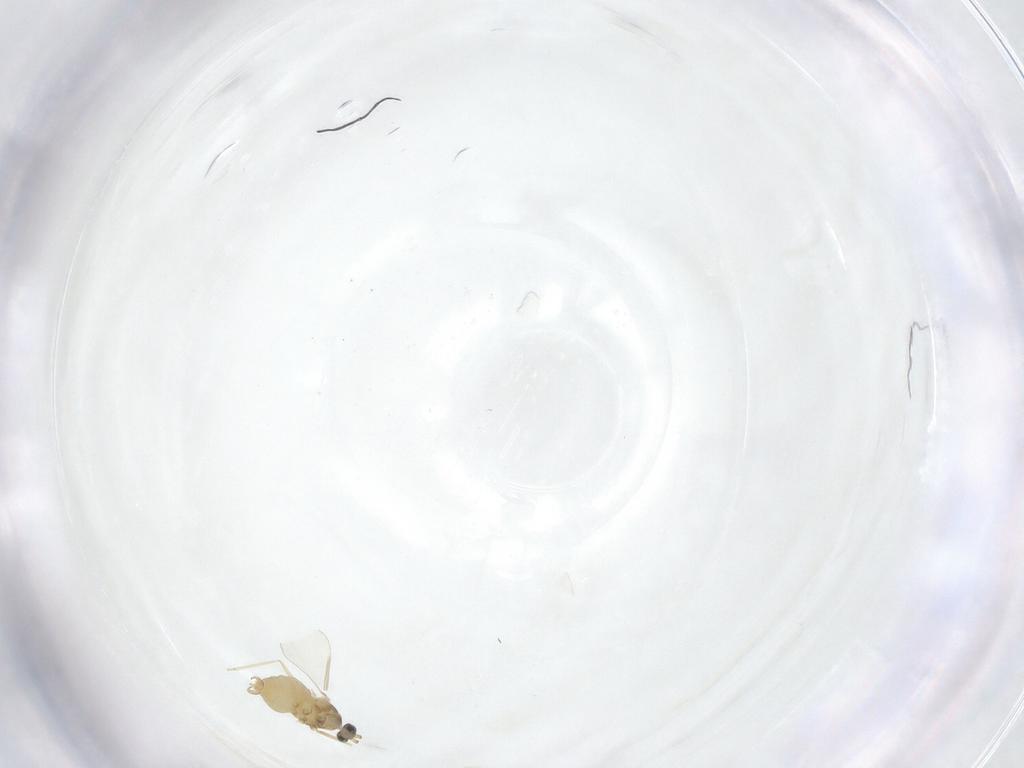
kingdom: Animalia
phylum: Arthropoda
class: Insecta
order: Diptera
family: Cecidomyiidae
